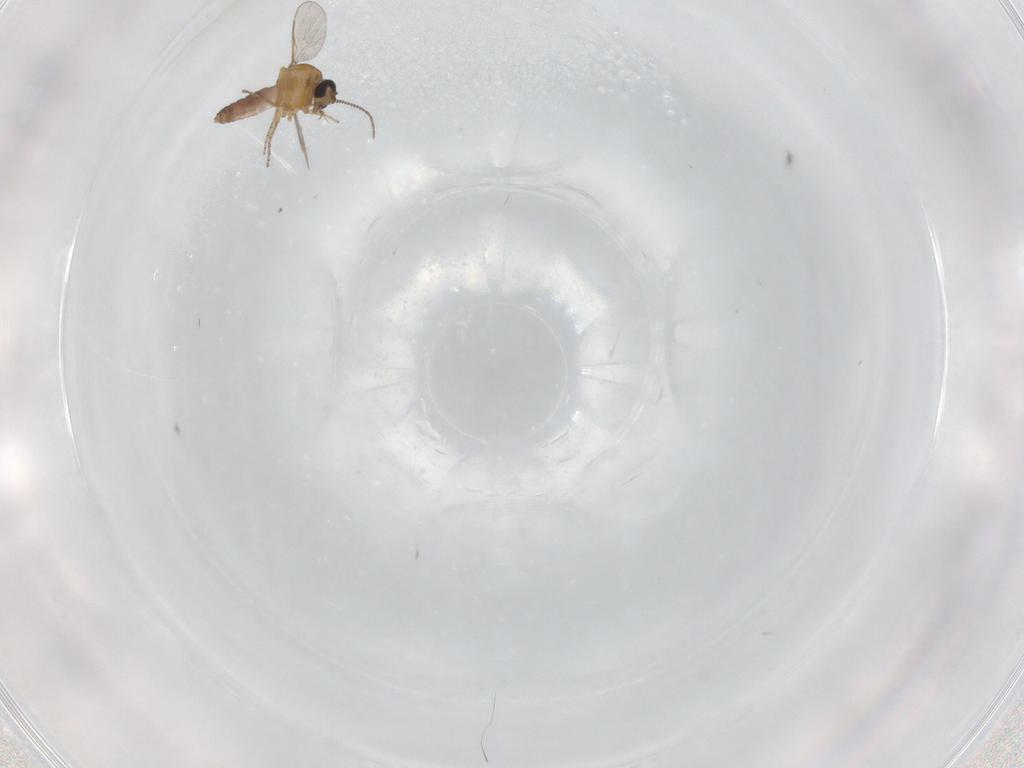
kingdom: Animalia
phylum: Arthropoda
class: Insecta
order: Diptera
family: Ceratopogonidae
